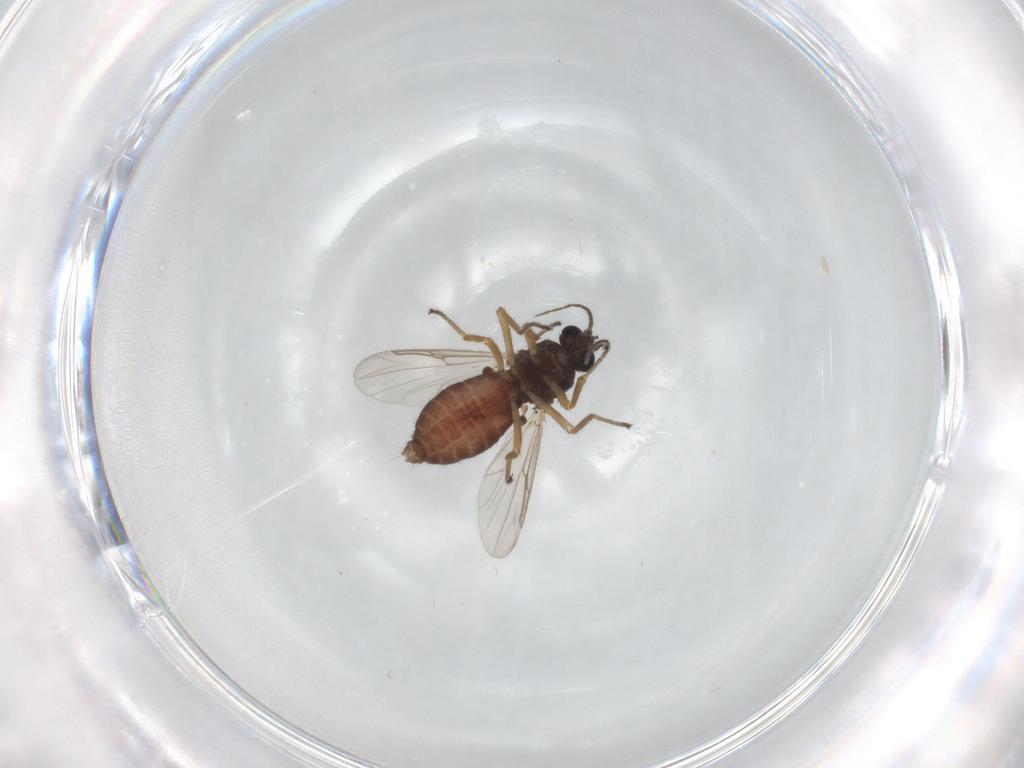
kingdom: Animalia
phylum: Arthropoda
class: Insecta
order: Diptera
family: Ceratopogonidae
